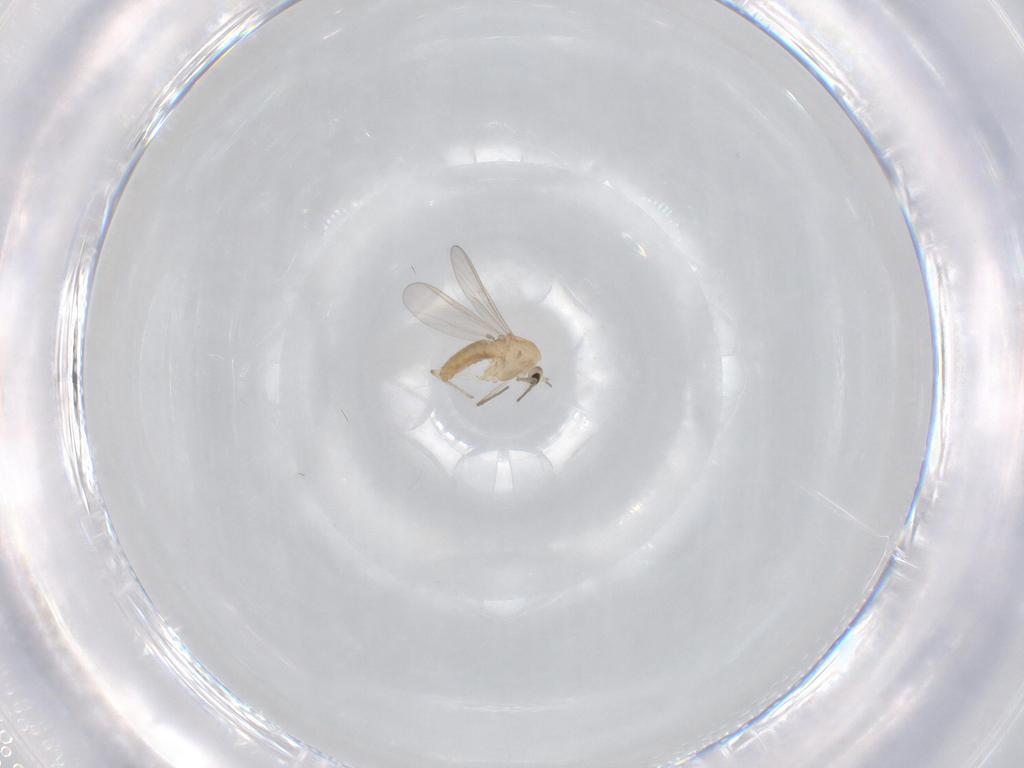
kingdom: Animalia
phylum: Arthropoda
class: Insecta
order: Diptera
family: Chironomidae
